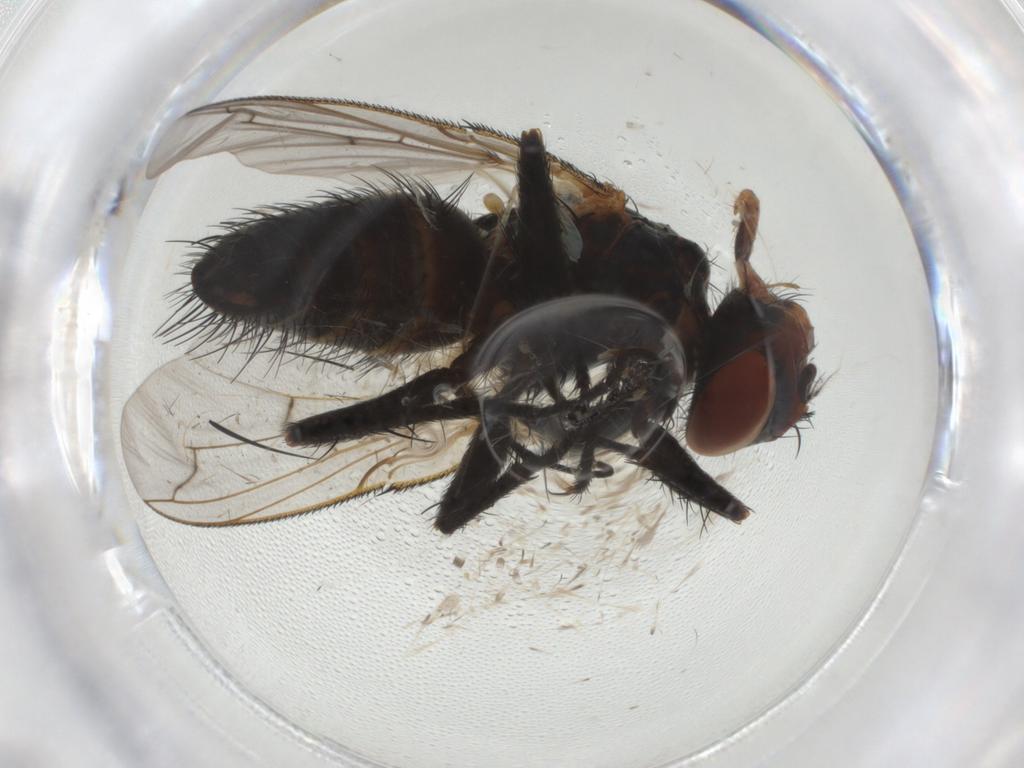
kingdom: Animalia
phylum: Arthropoda
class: Insecta
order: Diptera
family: Tachinidae
